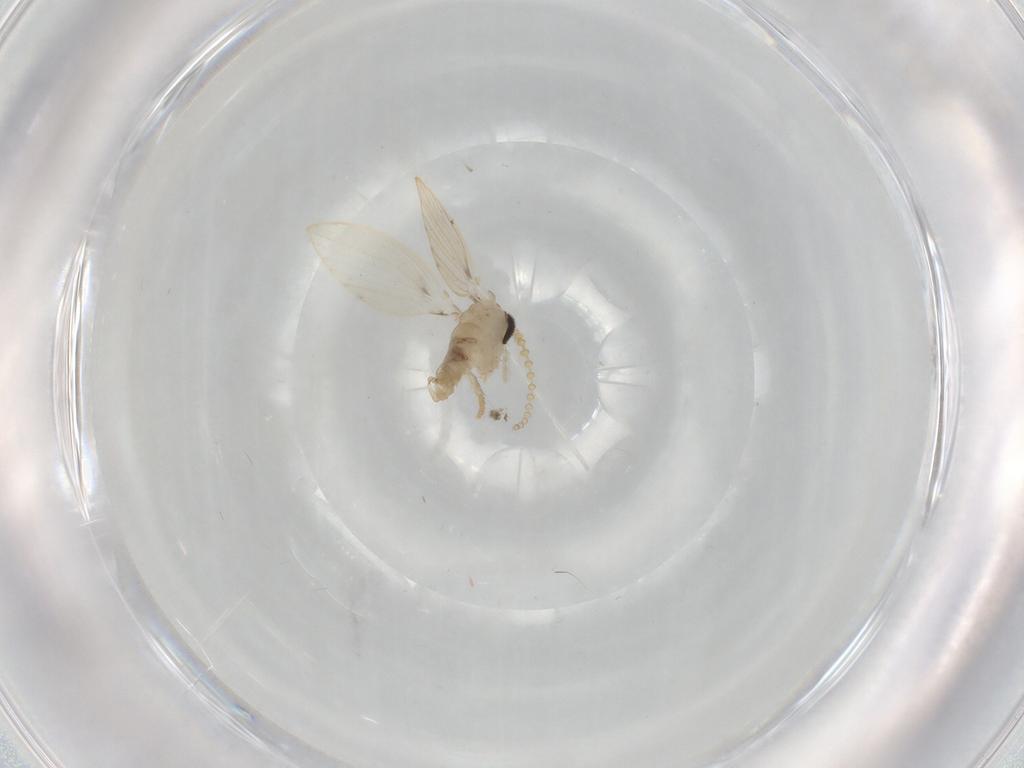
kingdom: Animalia
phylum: Arthropoda
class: Insecta
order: Diptera
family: Psychodidae
